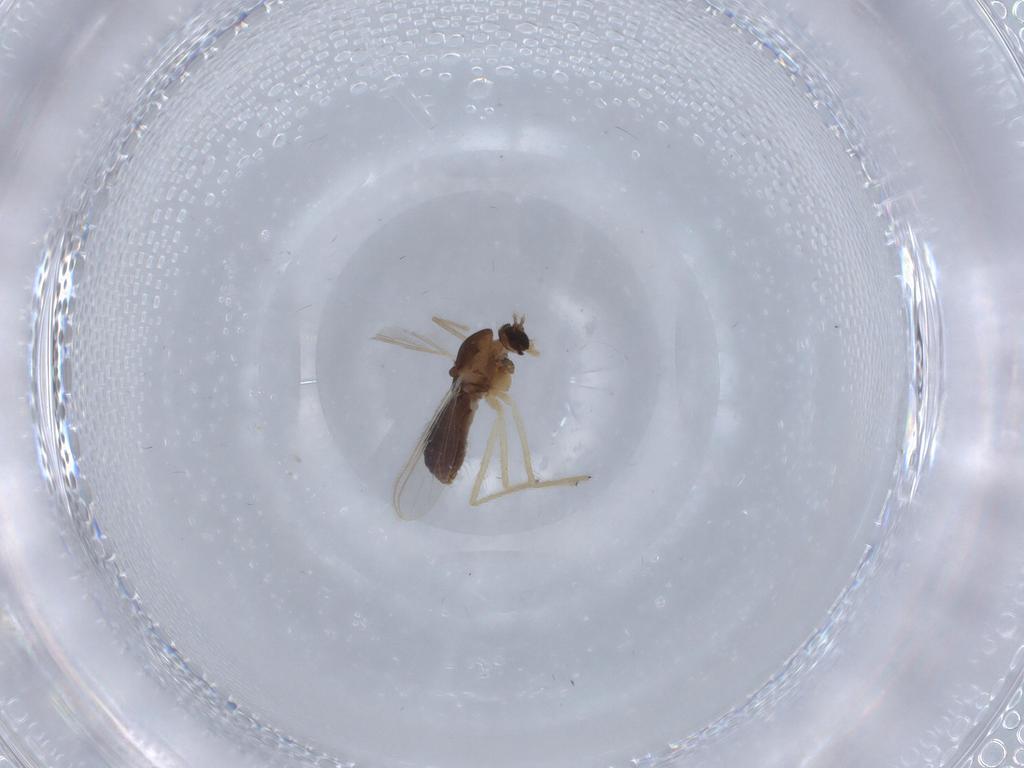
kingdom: Animalia
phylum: Arthropoda
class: Insecta
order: Diptera
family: Chironomidae
